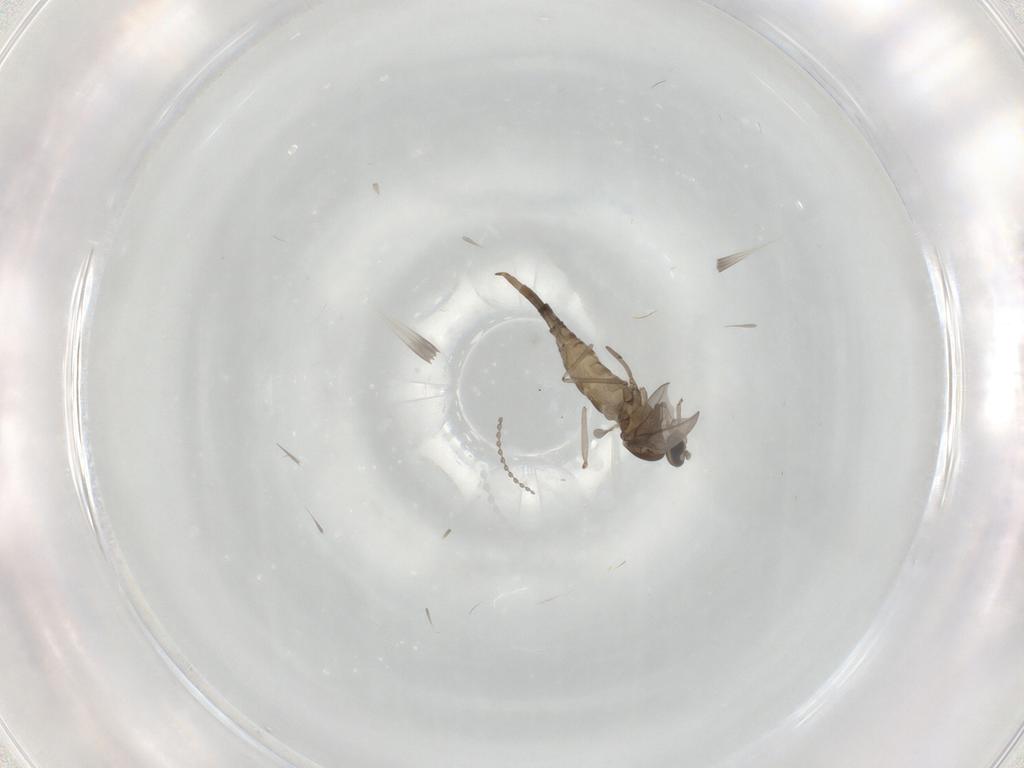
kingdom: Animalia
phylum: Arthropoda
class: Insecta
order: Diptera
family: Cecidomyiidae
